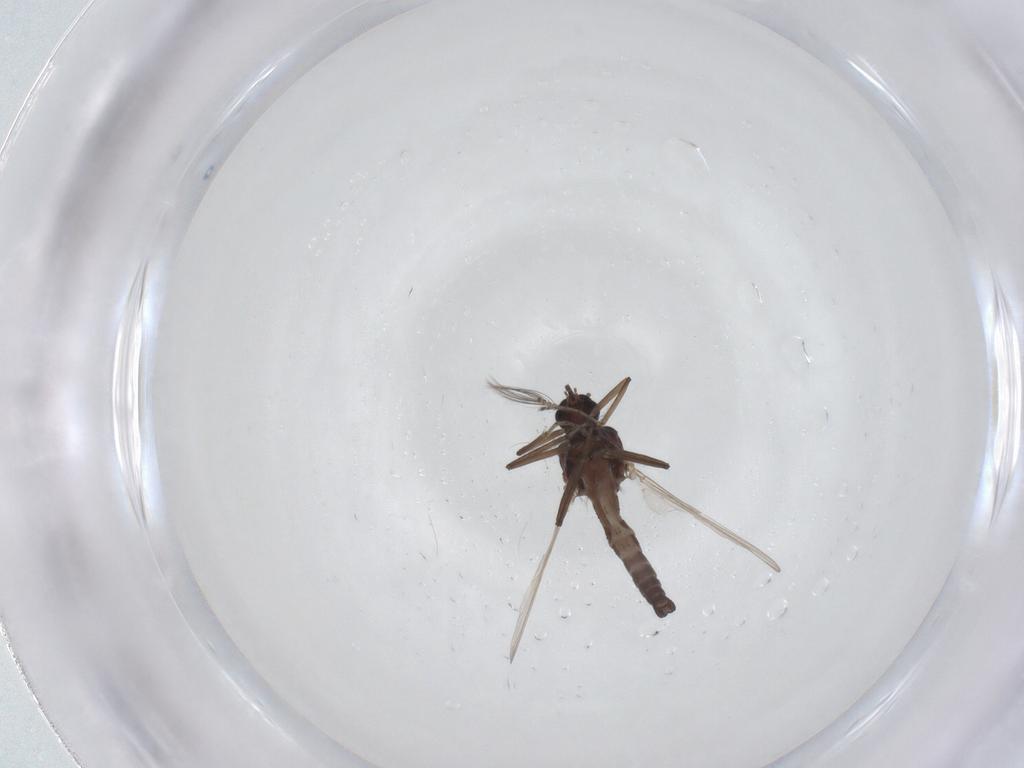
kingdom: Animalia
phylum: Arthropoda
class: Insecta
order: Diptera
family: Ceratopogonidae
